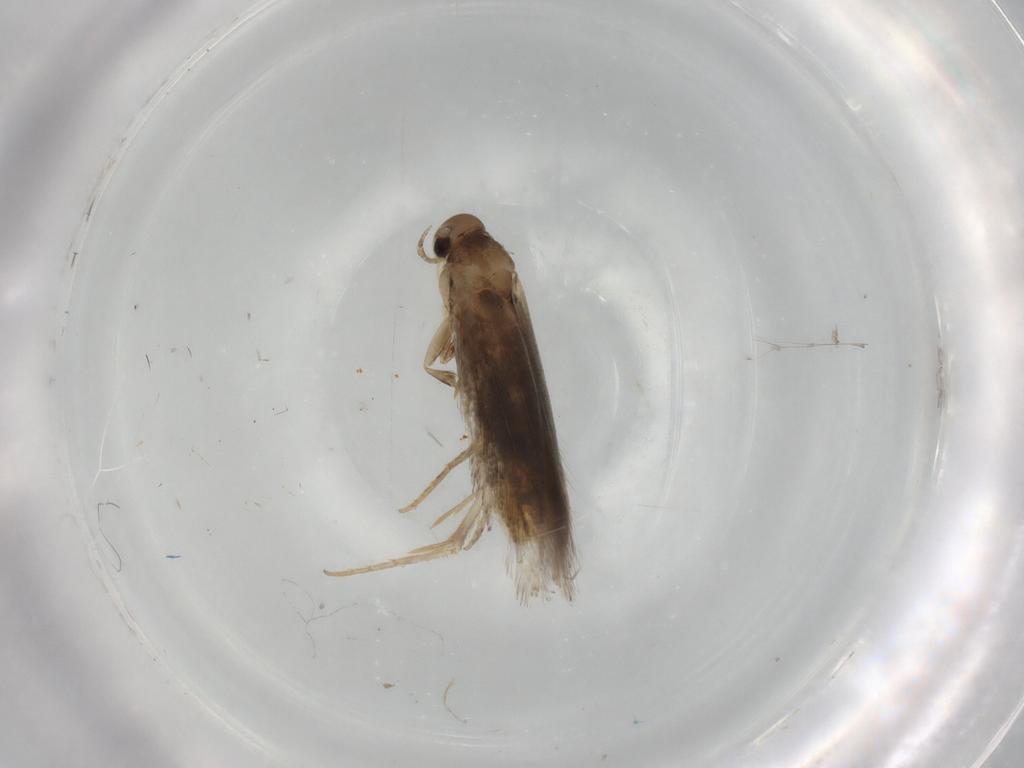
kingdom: Animalia
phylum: Arthropoda
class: Insecta
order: Lepidoptera
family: Elachistidae
